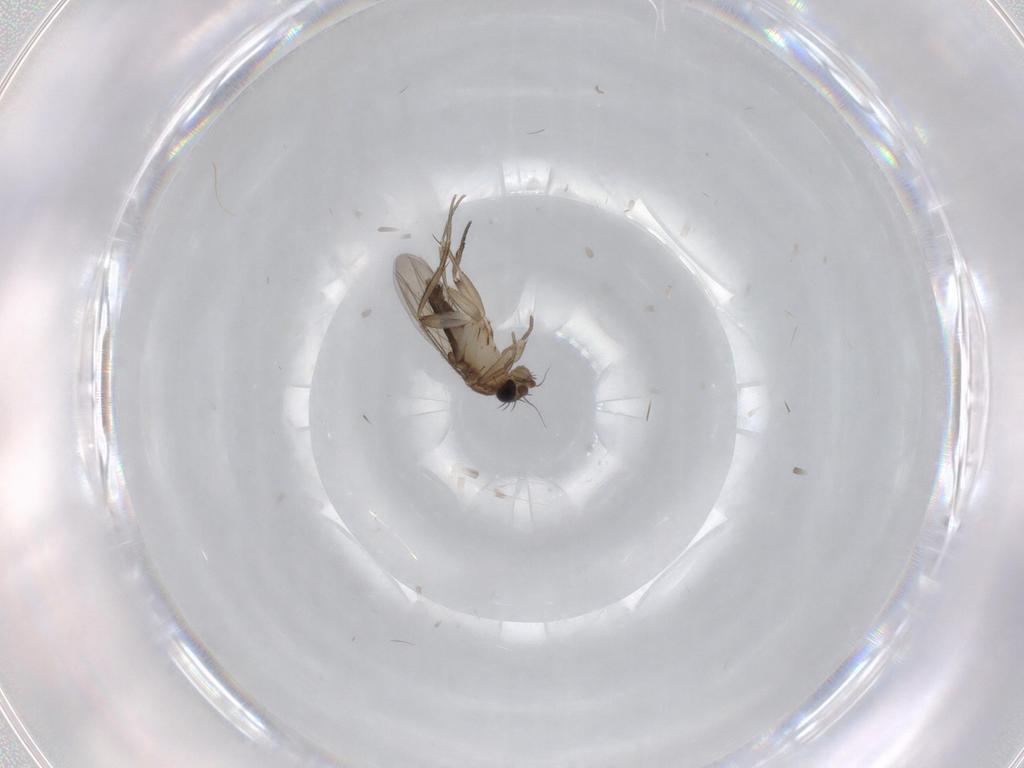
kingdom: Animalia
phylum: Arthropoda
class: Insecta
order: Diptera
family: Phoridae
